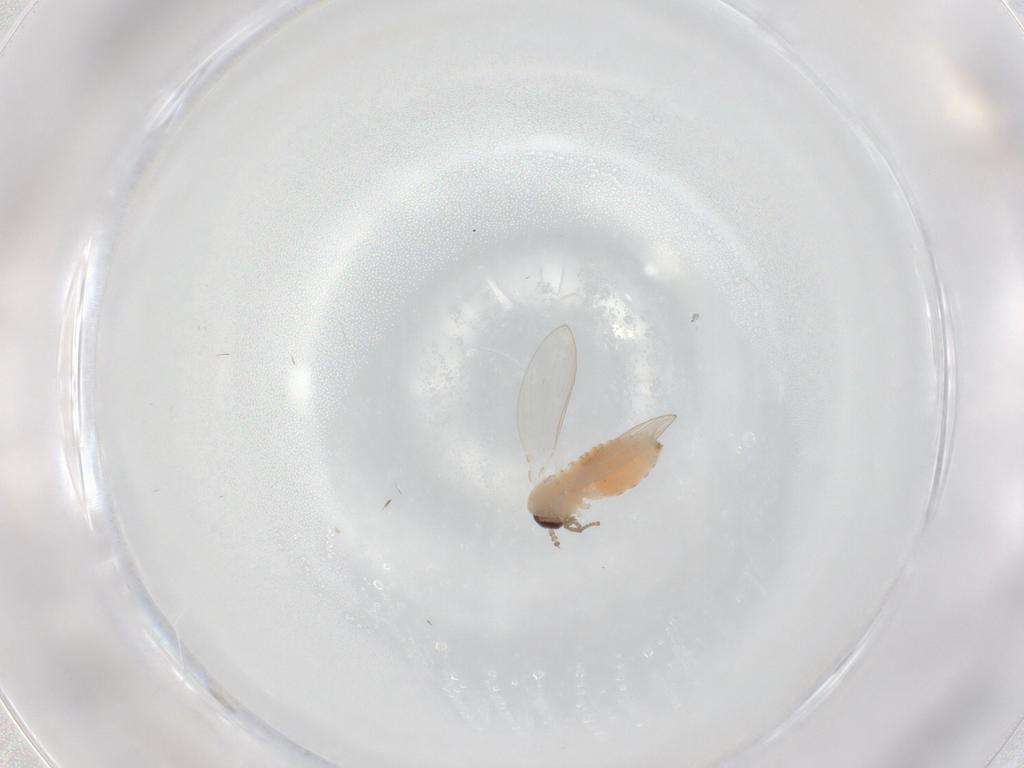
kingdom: Animalia
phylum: Arthropoda
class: Insecta
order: Diptera
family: Psychodidae
